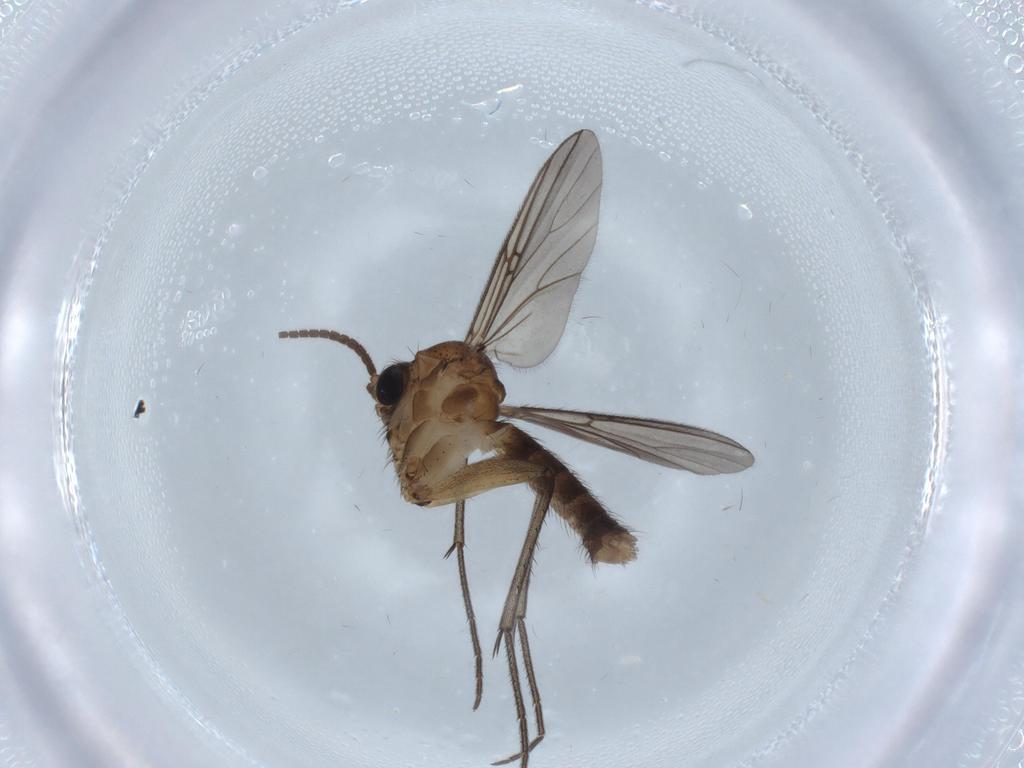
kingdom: Animalia
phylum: Arthropoda
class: Insecta
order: Diptera
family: Mycetophilidae
